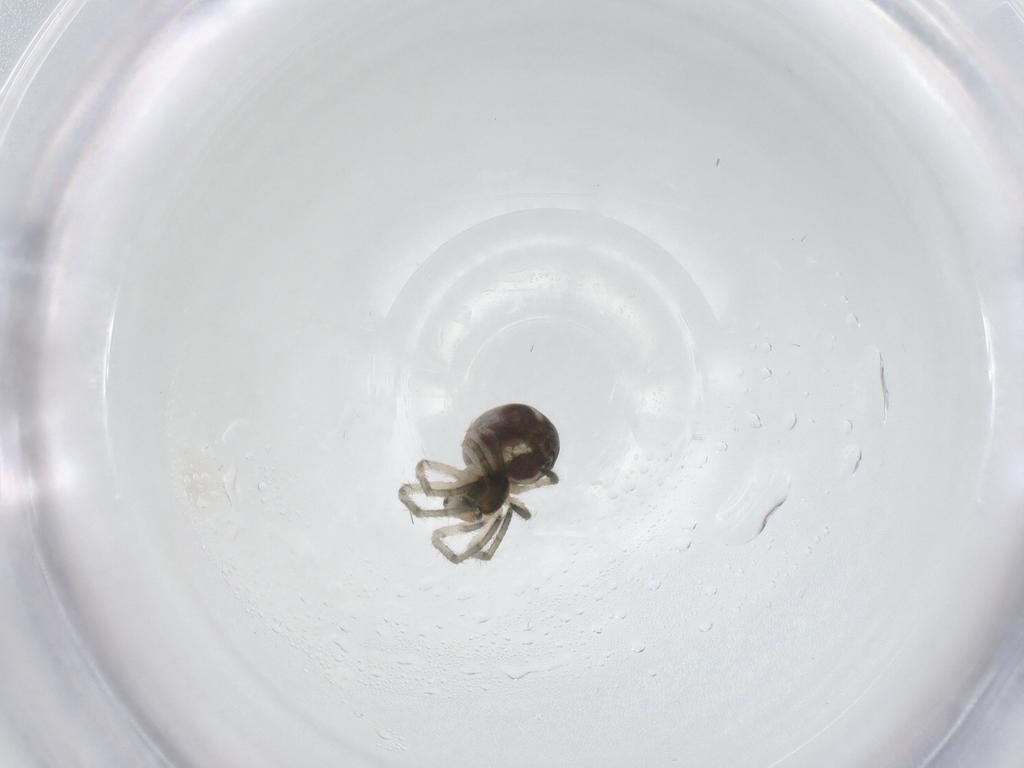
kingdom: Animalia
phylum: Arthropoda
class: Arachnida
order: Araneae
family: Tetragnathidae
